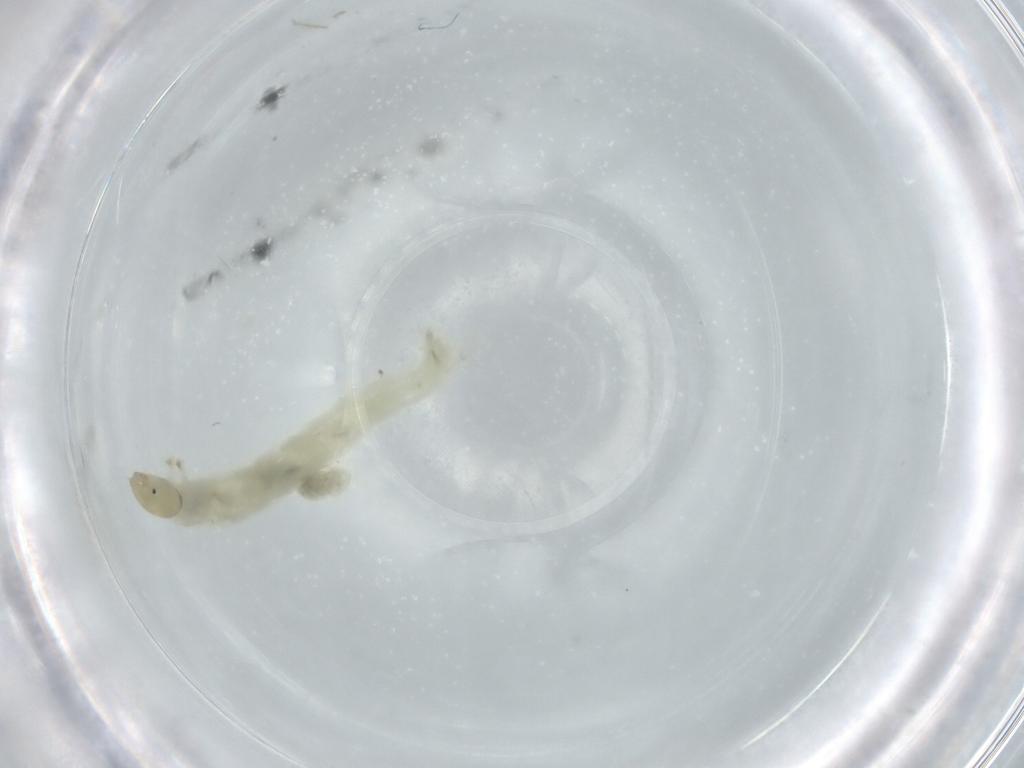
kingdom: Animalia
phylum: Arthropoda
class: Insecta
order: Diptera
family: Chironomidae
